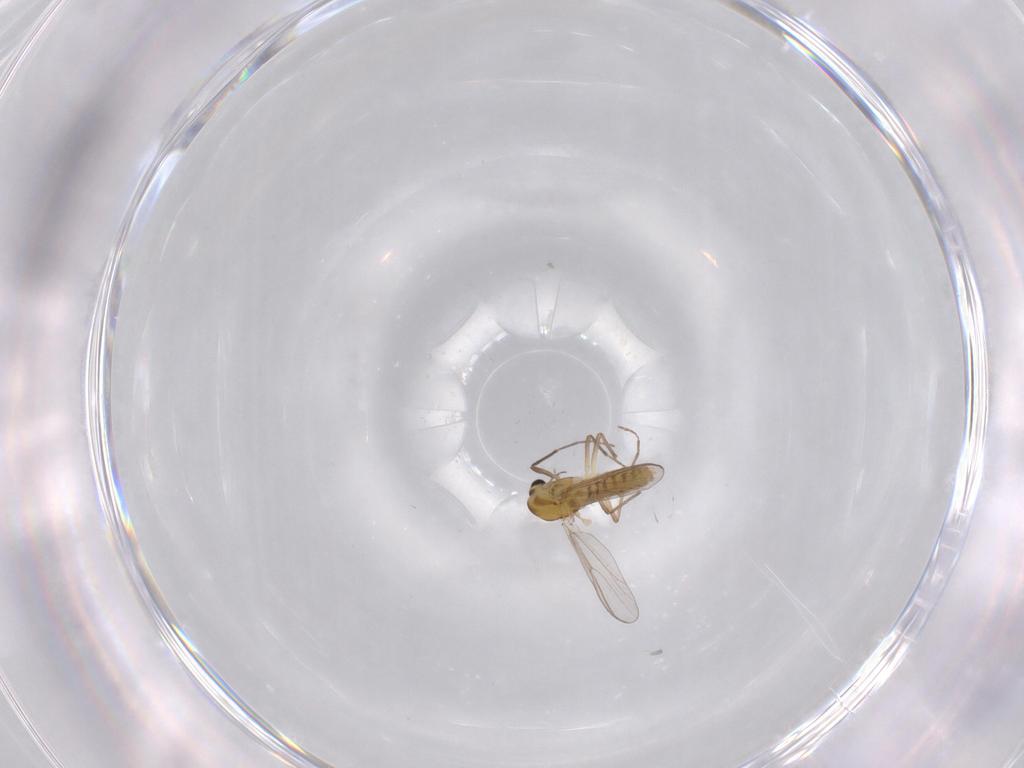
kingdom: Animalia
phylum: Arthropoda
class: Insecta
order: Diptera
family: Chironomidae
